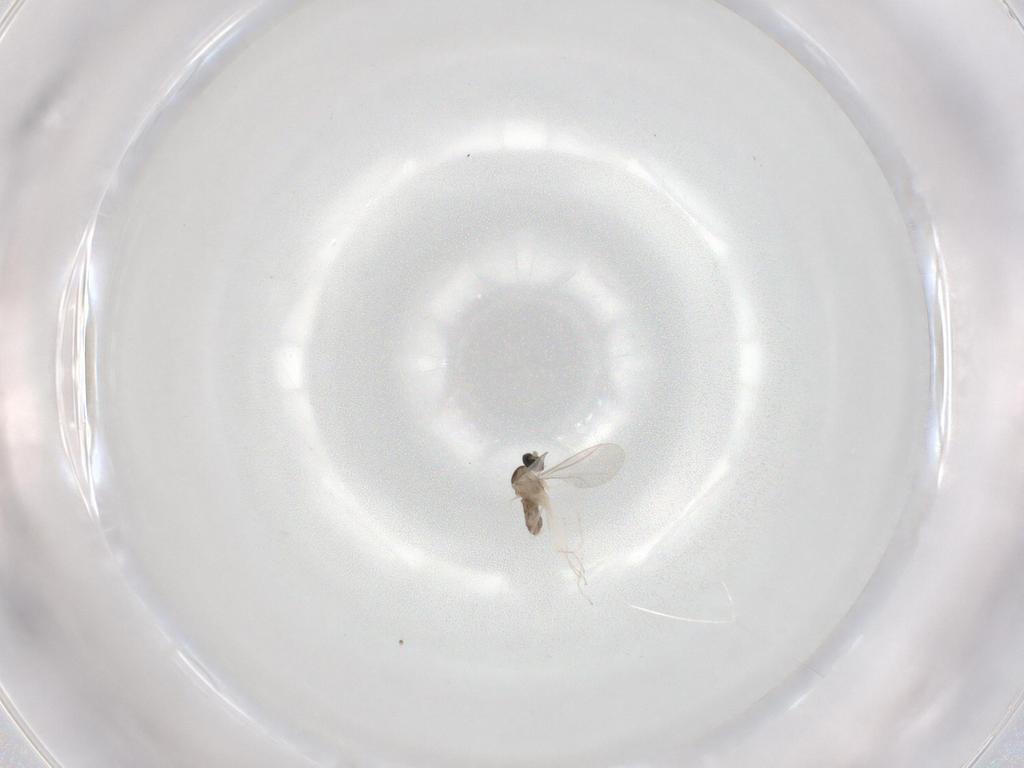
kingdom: Animalia
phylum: Arthropoda
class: Insecta
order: Diptera
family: Cecidomyiidae
